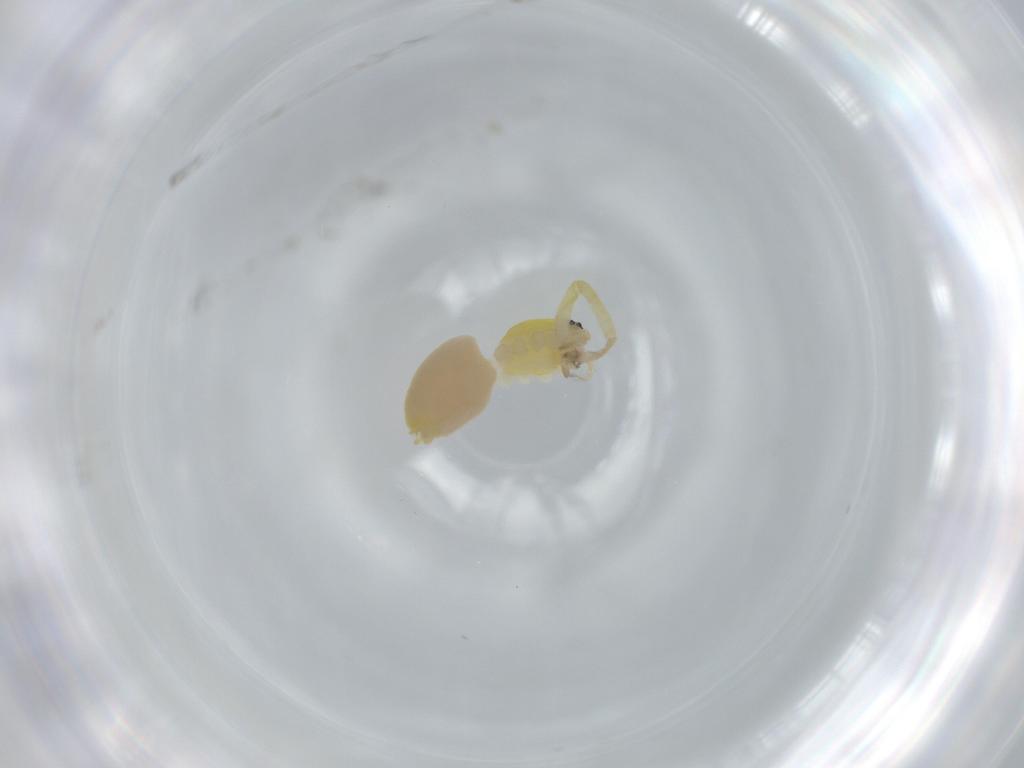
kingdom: Animalia
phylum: Arthropoda
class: Arachnida
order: Araneae
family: Anyphaenidae
